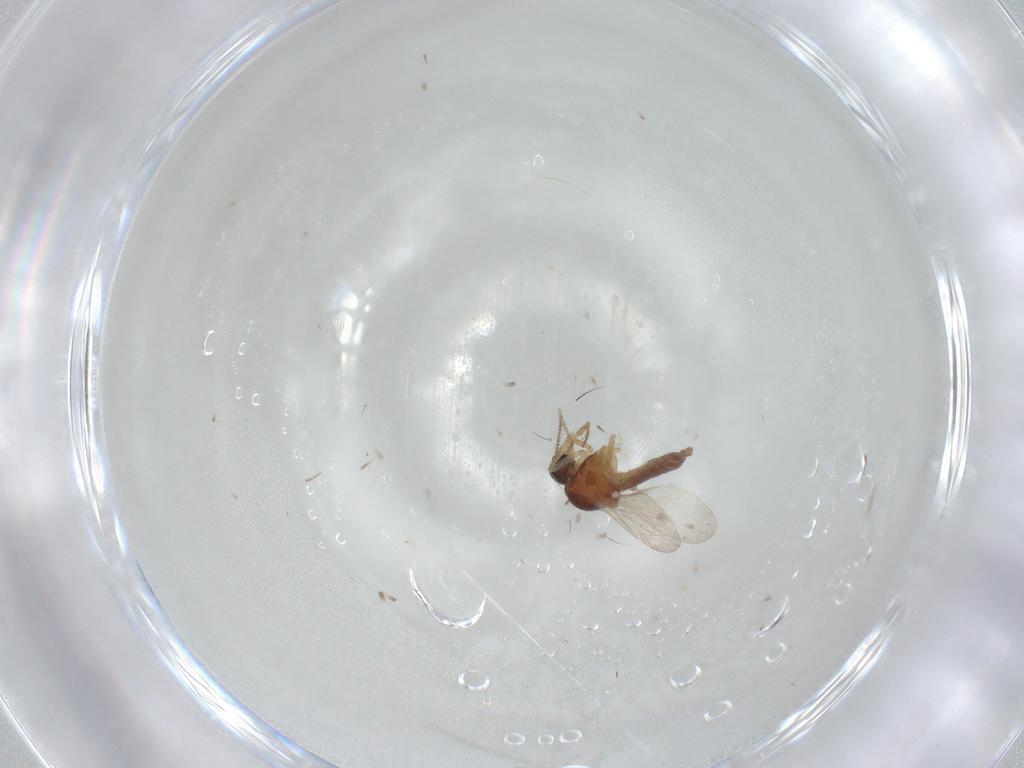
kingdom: Animalia
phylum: Arthropoda
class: Insecta
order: Diptera
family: Ceratopogonidae
